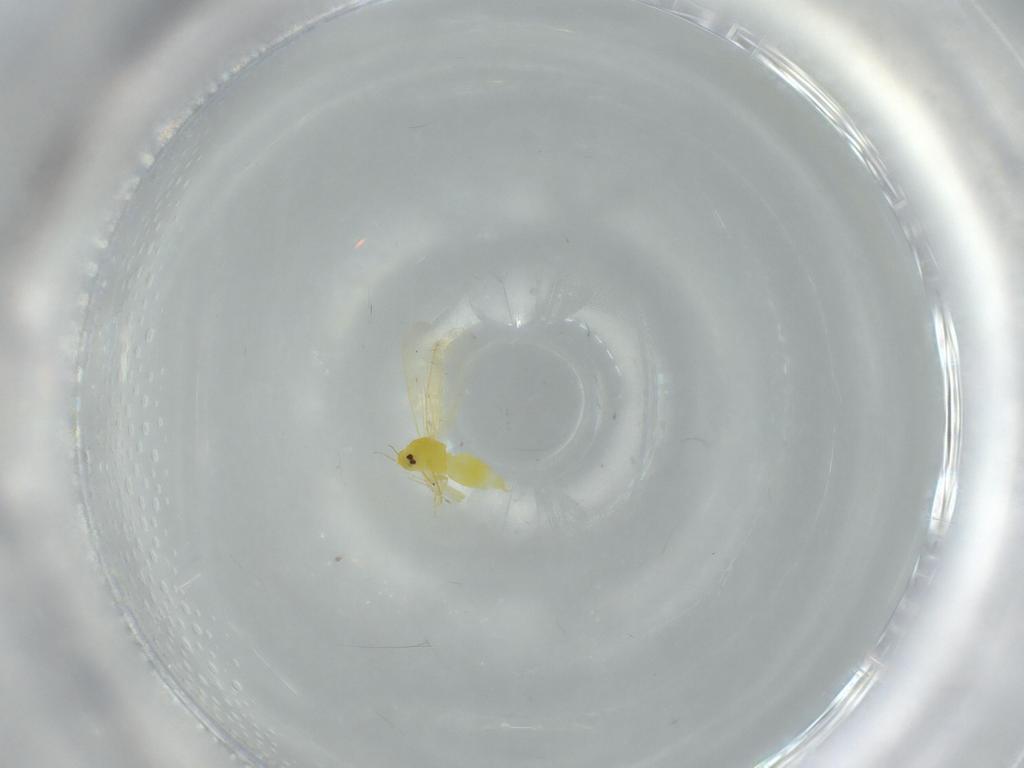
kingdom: Animalia
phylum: Arthropoda
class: Insecta
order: Hemiptera
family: Aleyrodidae
